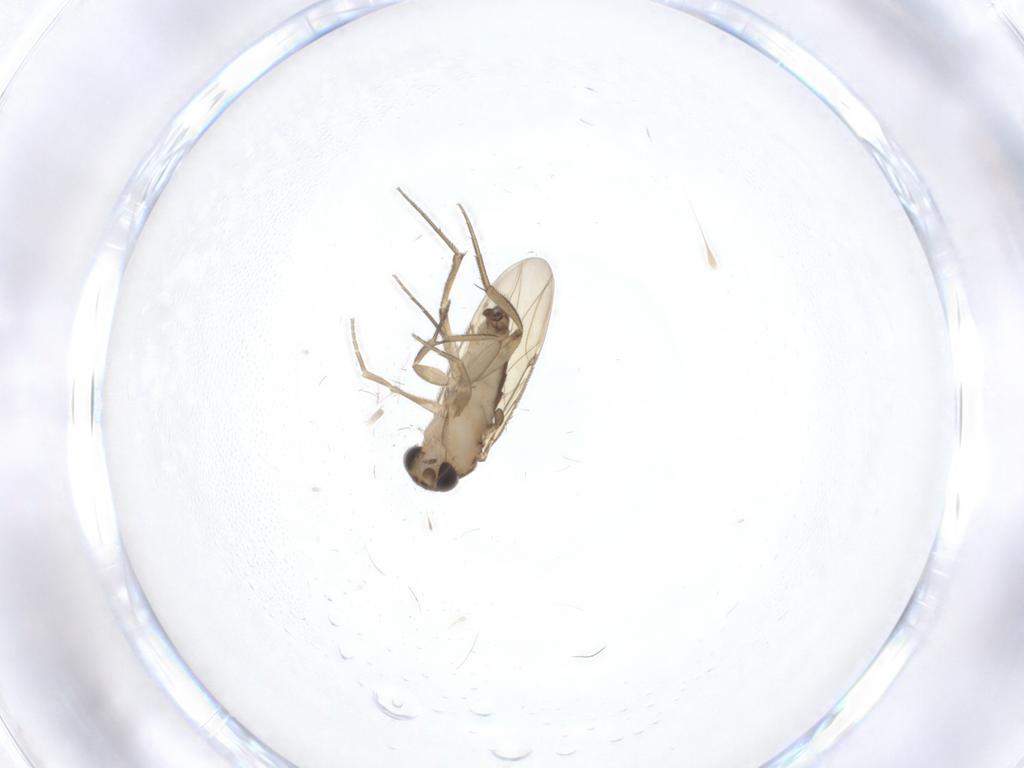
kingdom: Animalia
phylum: Arthropoda
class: Insecta
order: Diptera
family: Phoridae
